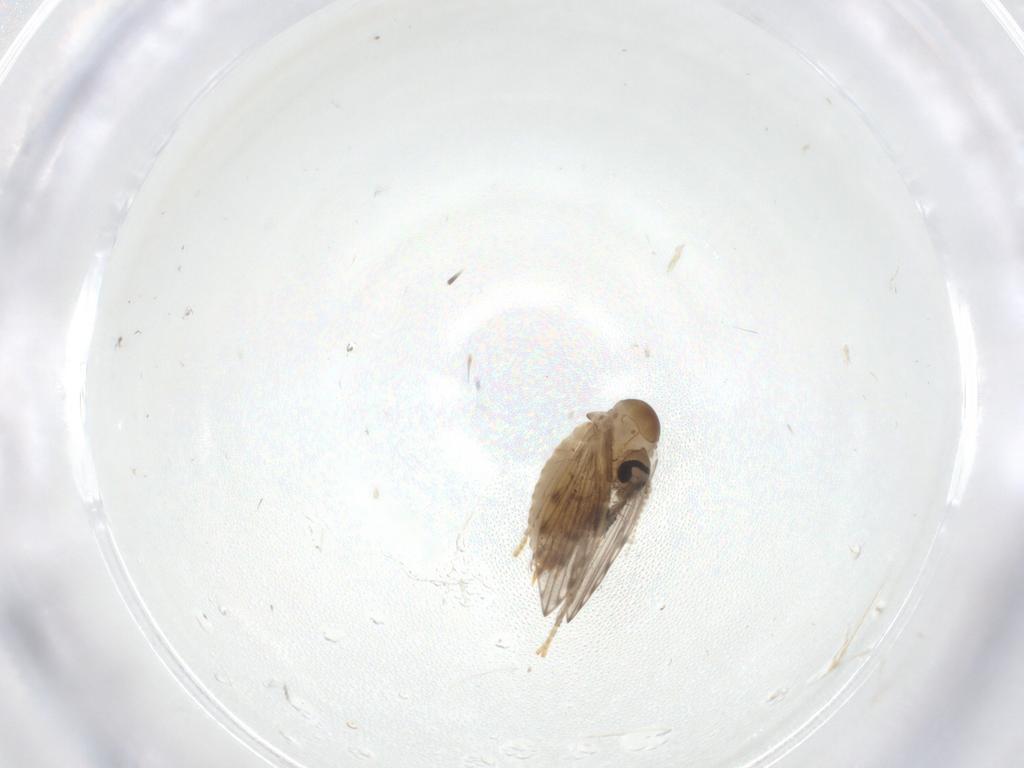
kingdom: Animalia
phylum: Arthropoda
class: Insecta
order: Diptera
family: Psychodidae
